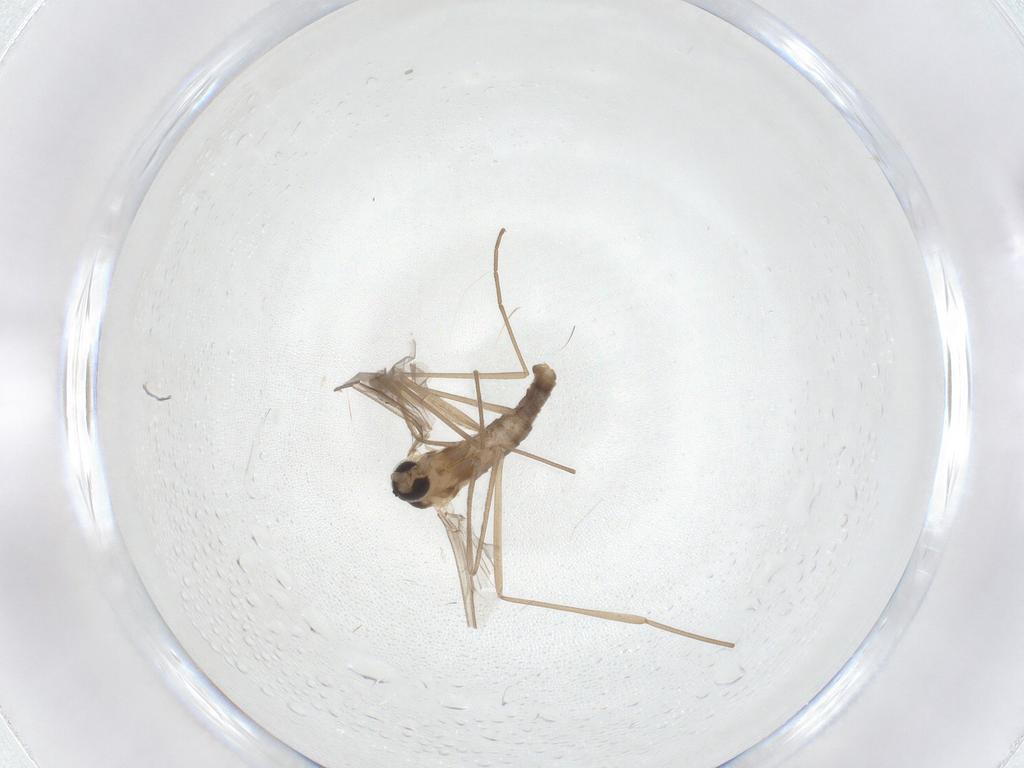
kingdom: Animalia
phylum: Arthropoda
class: Insecta
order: Diptera
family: Cecidomyiidae
